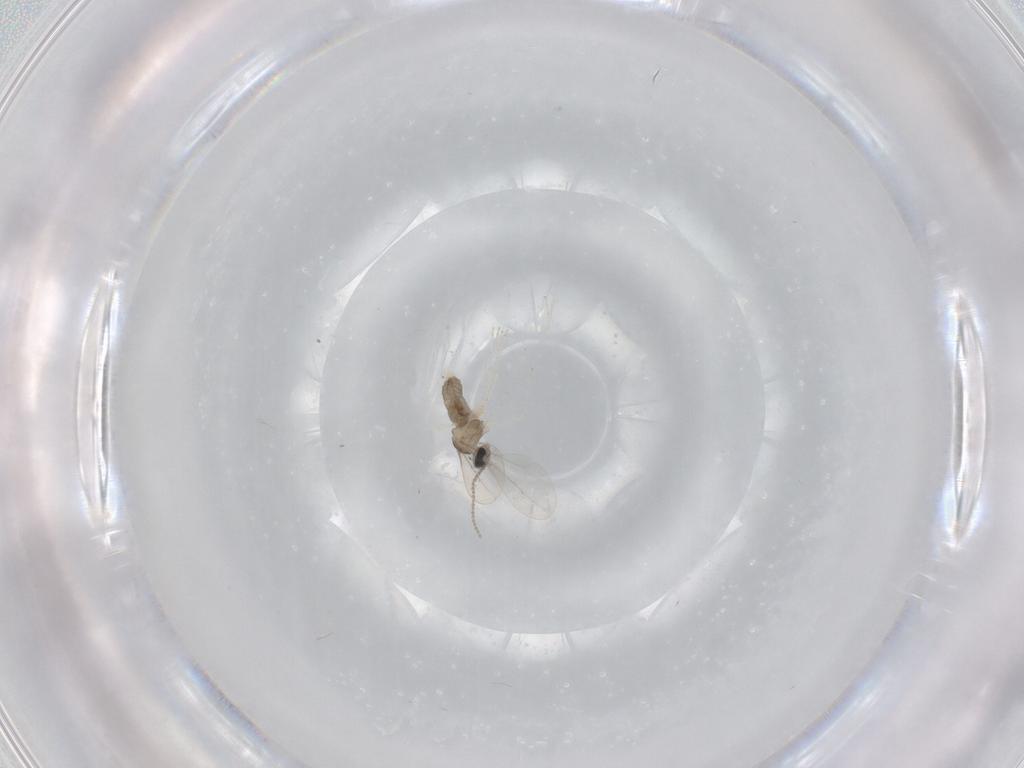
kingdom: Animalia
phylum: Arthropoda
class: Insecta
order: Diptera
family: Cecidomyiidae
